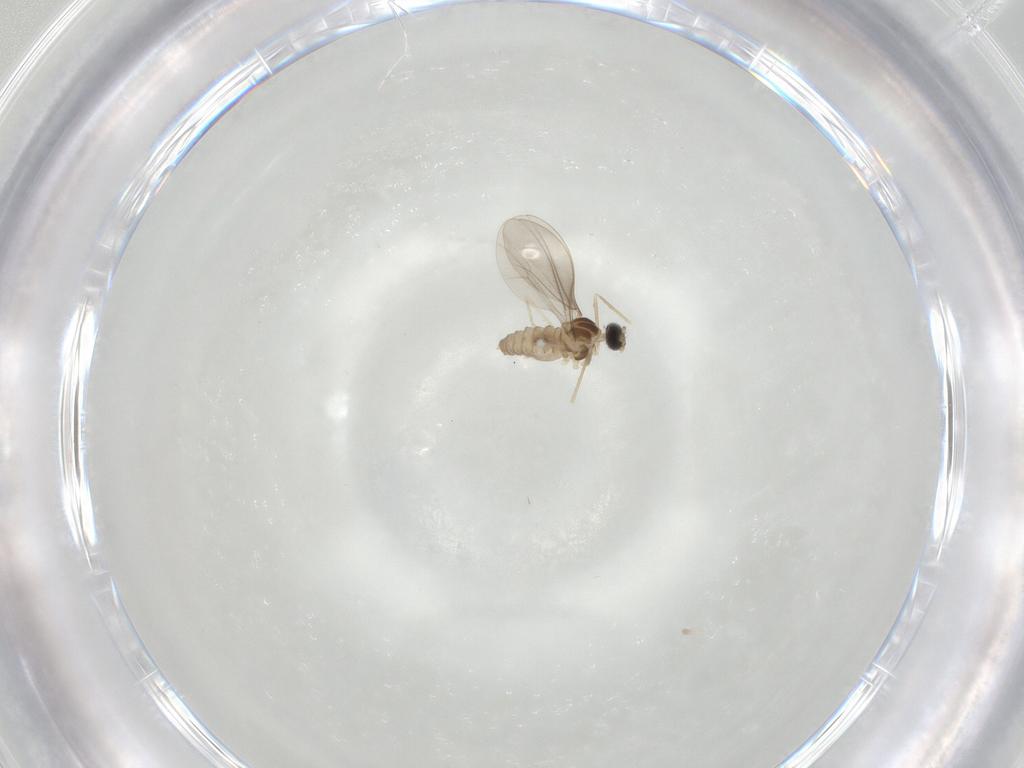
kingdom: Animalia
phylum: Arthropoda
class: Insecta
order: Diptera
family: Cecidomyiidae
